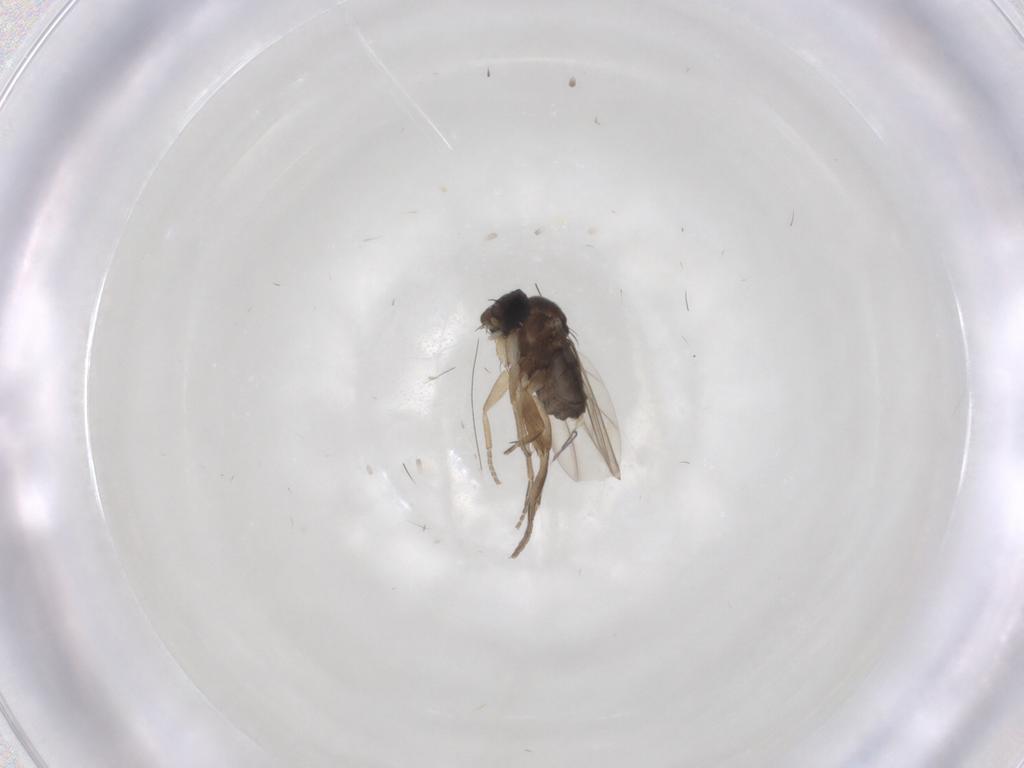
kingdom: Animalia
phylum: Arthropoda
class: Insecta
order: Diptera
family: Phoridae
